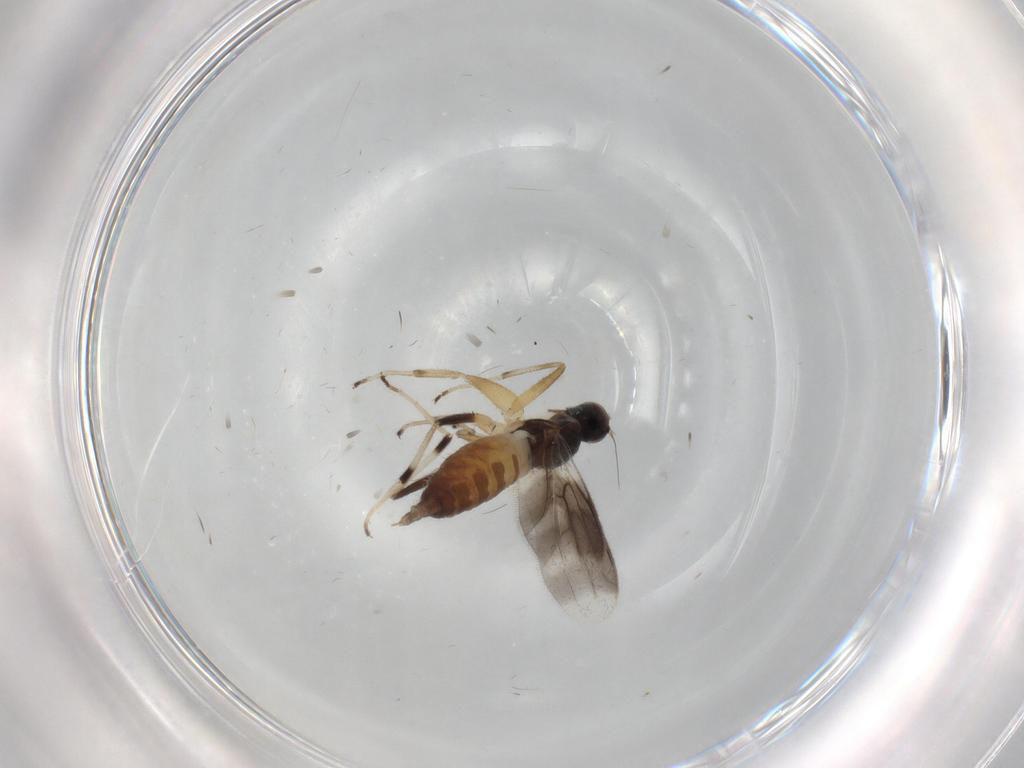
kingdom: Animalia
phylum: Arthropoda
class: Insecta
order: Diptera
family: Hybotidae
